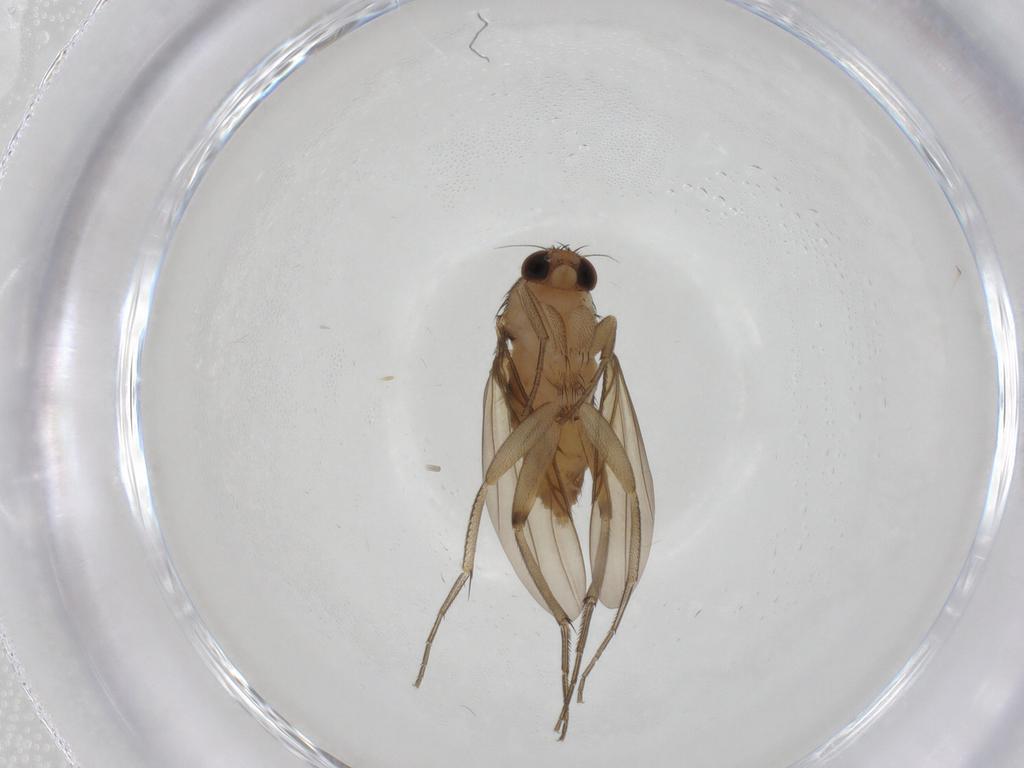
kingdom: Animalia
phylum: Arthropoda
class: Insecta
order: Diptera
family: Phoridae
